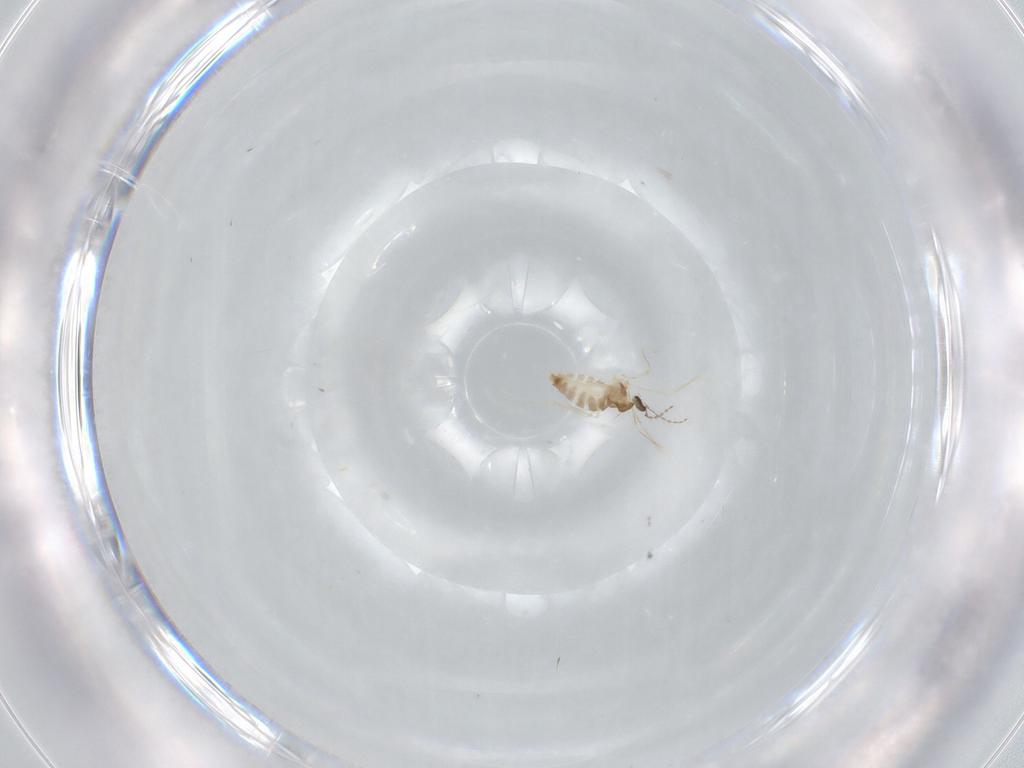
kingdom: Animalia
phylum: Arthropoda
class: Insecta
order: Diptera
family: Cecidomyiidae
